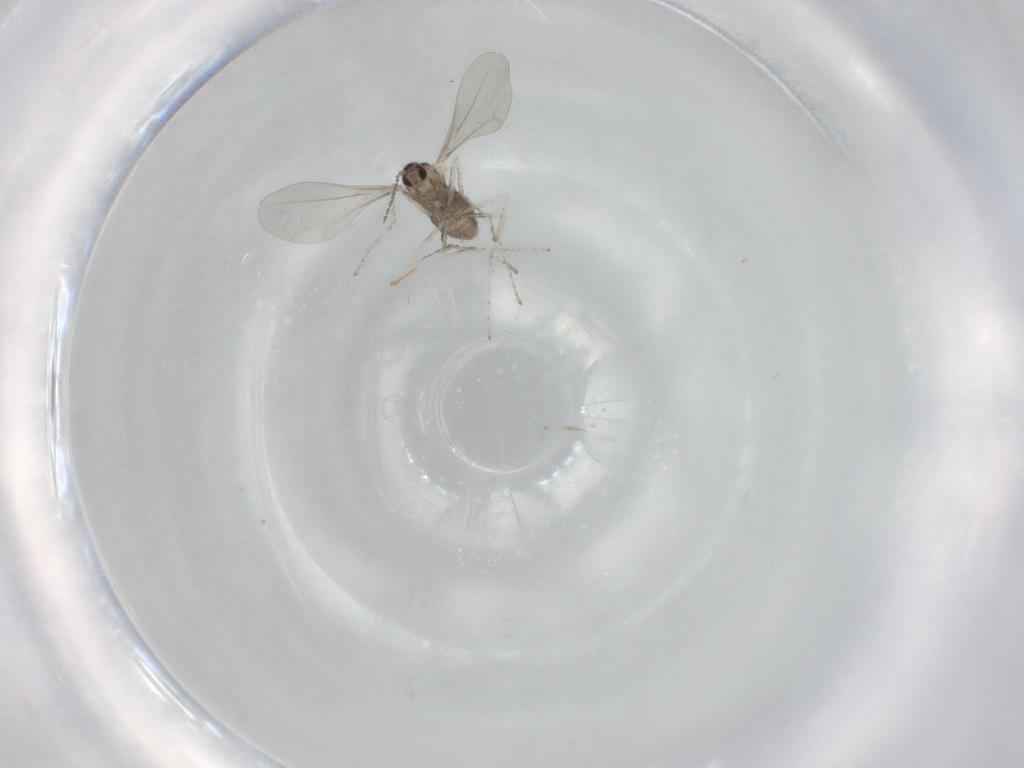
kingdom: Animalia
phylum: Arthropoda
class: Insecta
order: Diptera
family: Cecidomyiidae
